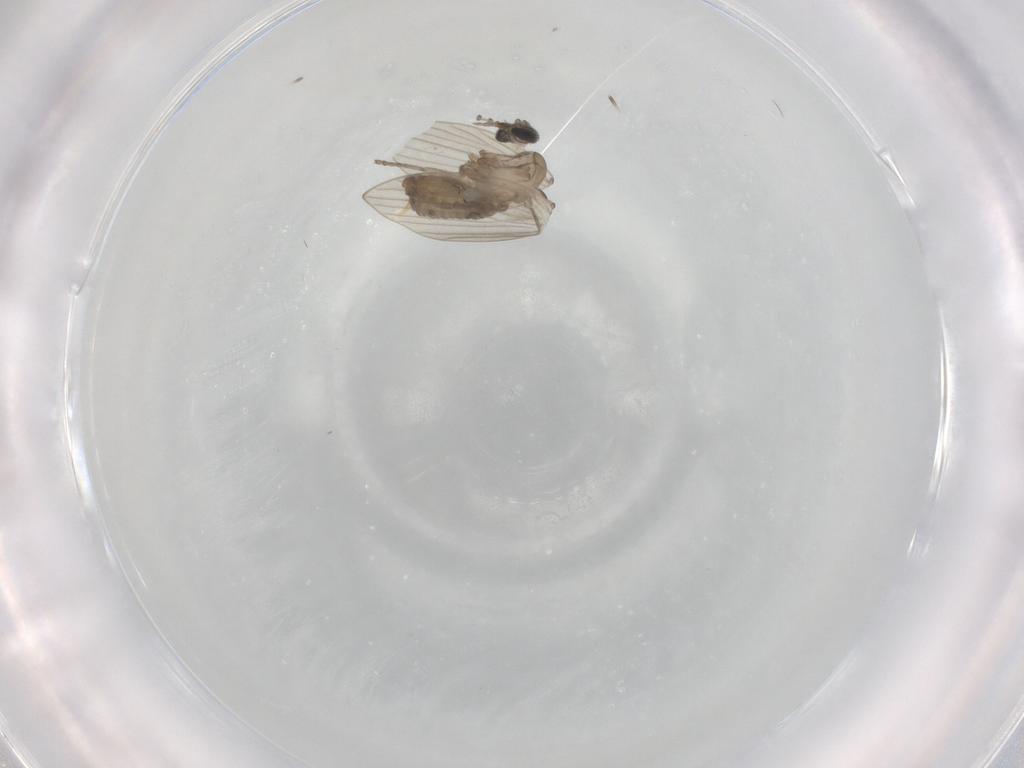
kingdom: Animalia
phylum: Arthropoda
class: Insecta
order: Diptera
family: Psychodidae
